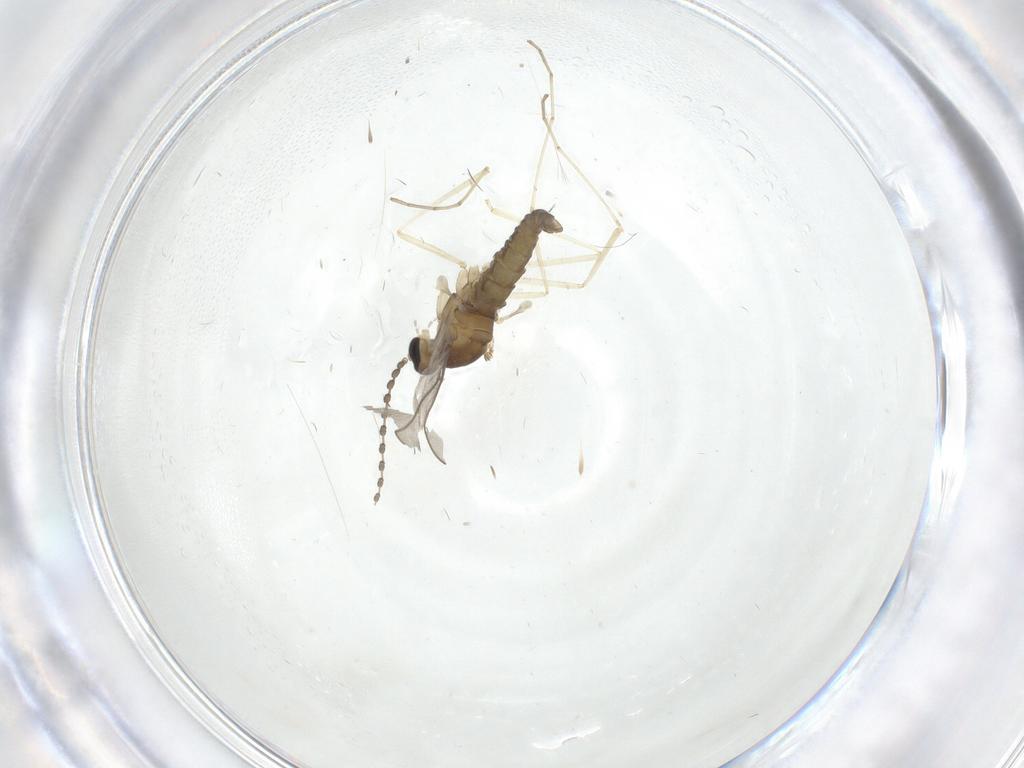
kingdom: Animalia
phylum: Arthropoda
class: Insecta
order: Diptera
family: Cecidomyiidae
